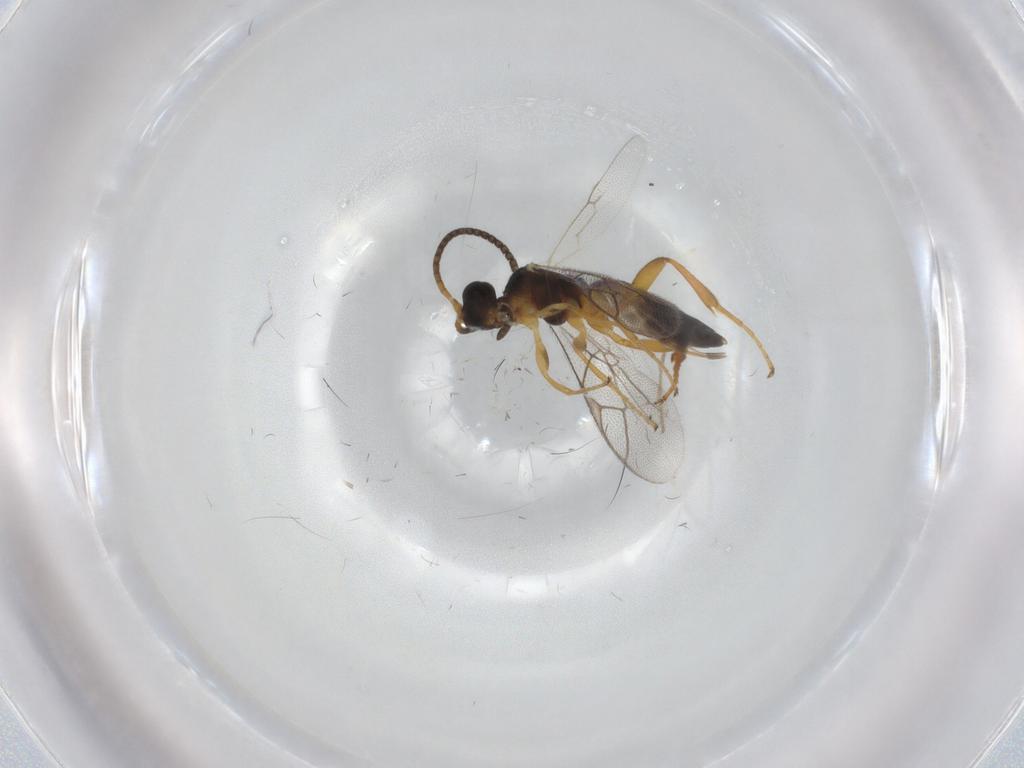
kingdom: Animalia
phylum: Arthropoda
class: Insecta
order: Hymenoptera
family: Ichneumonidae
